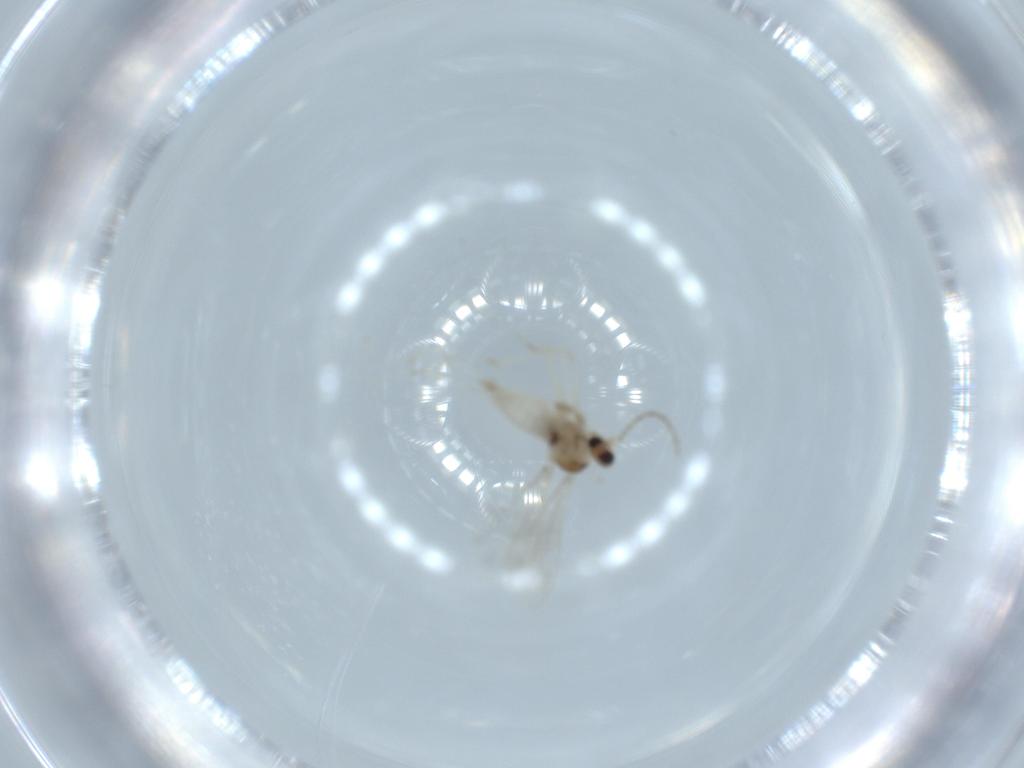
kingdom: Animalia
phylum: Arthropoda
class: Insecta
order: Diptera
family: Cecidomyiidae
